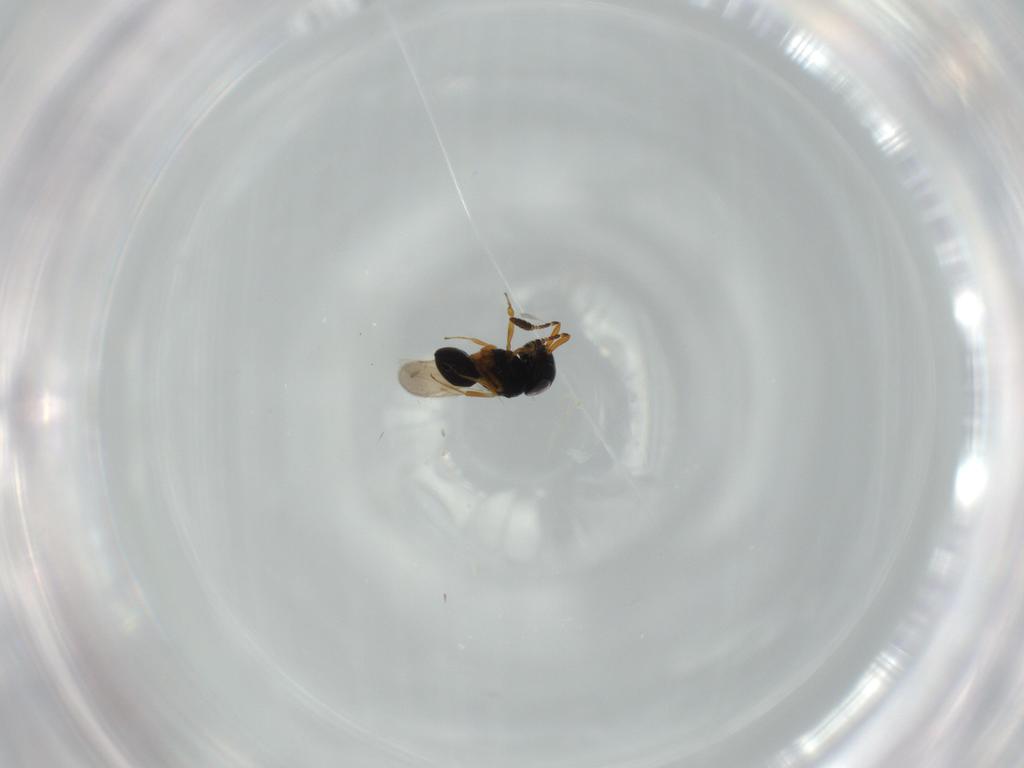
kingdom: Animalia
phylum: Arthropoda
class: Insecta
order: Hymenoptera
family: Scelionidae
